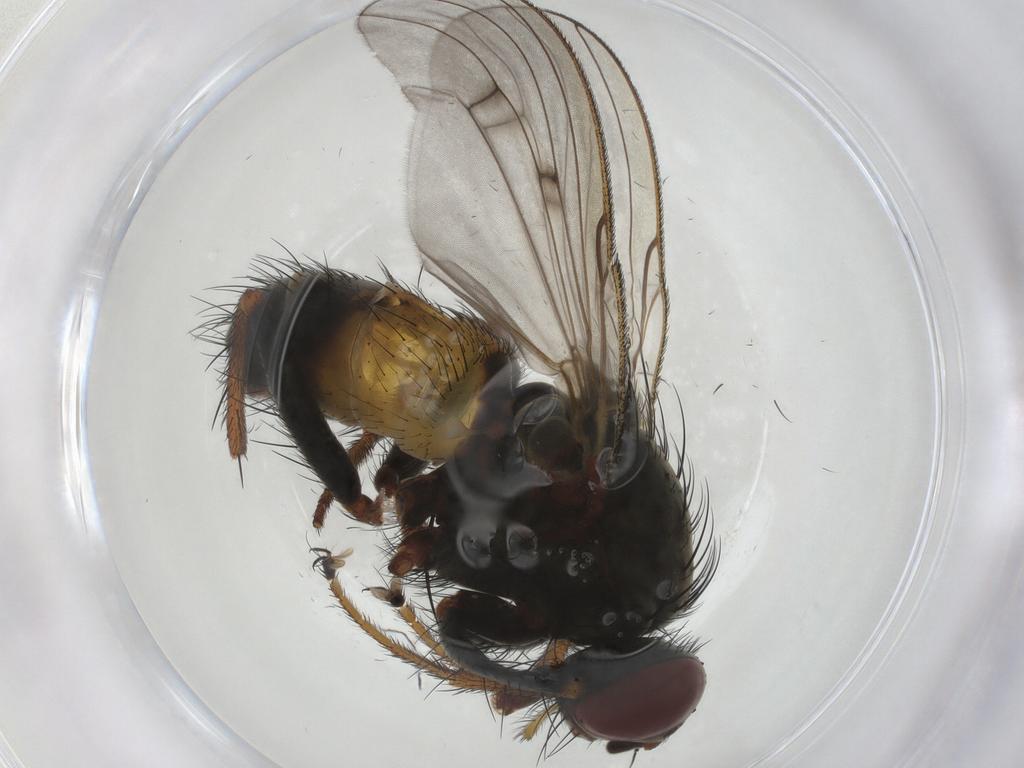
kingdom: Animalia
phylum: Arthropoda
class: Insecta
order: Diptera
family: Muscidae
